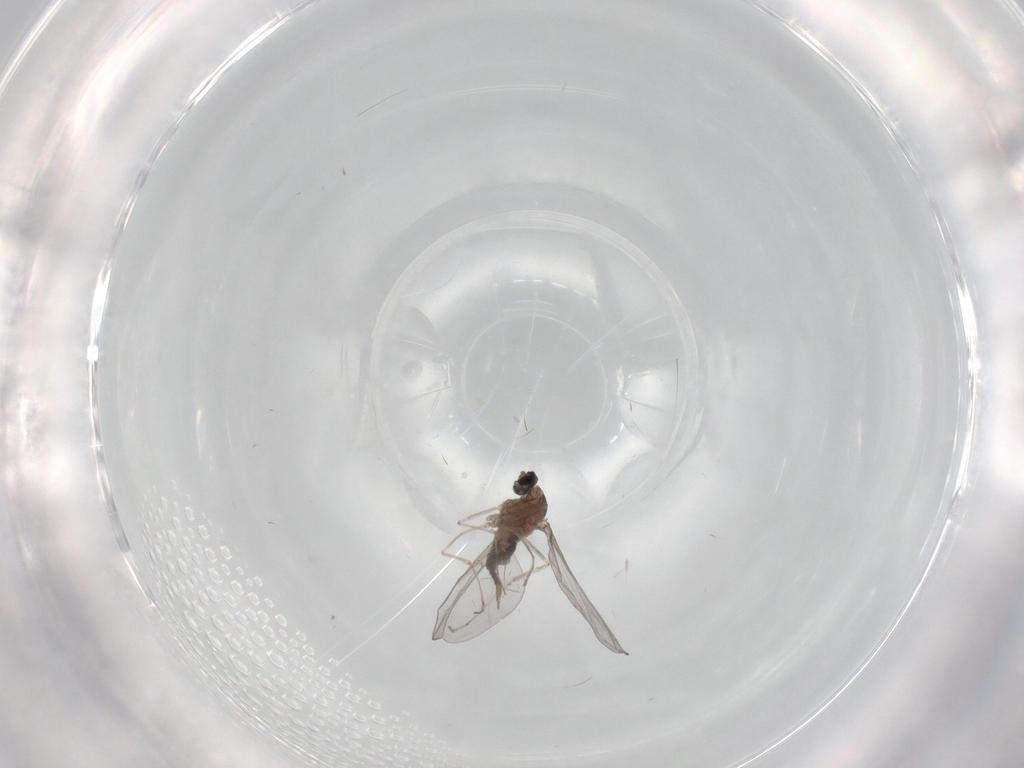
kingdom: Animalia
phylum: Arthropoda
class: Insecta
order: Diptera
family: Cecidomyiidae
